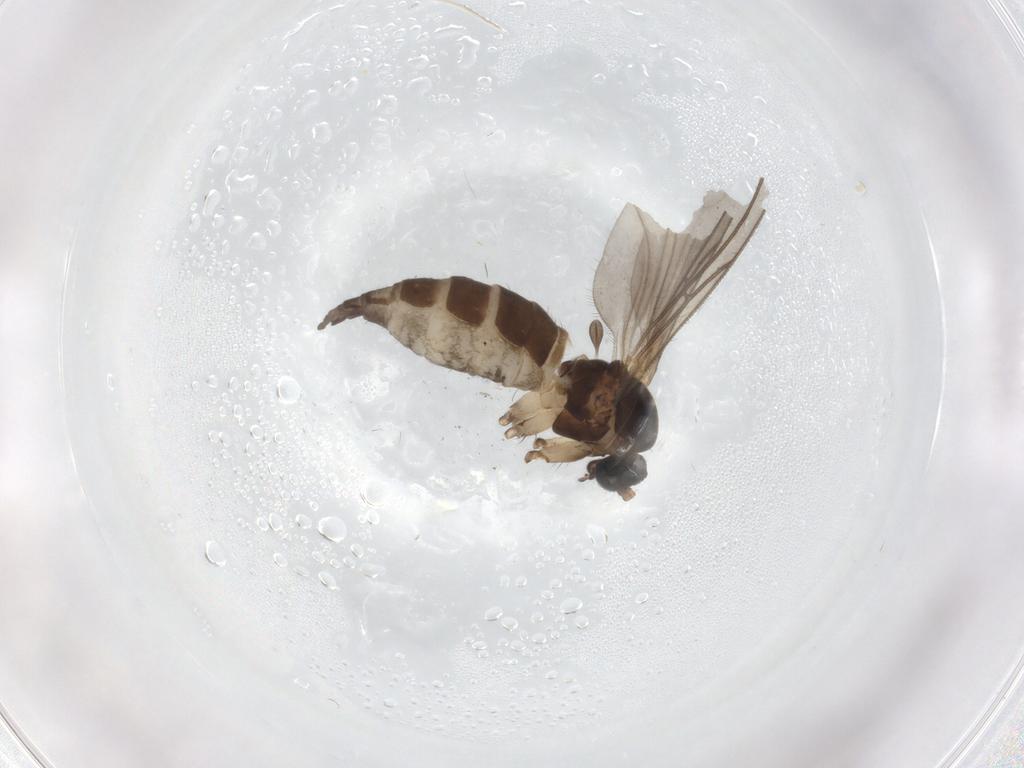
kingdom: Animalia
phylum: Arthropoda
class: Insecta
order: Diptera
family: Sciaridae
